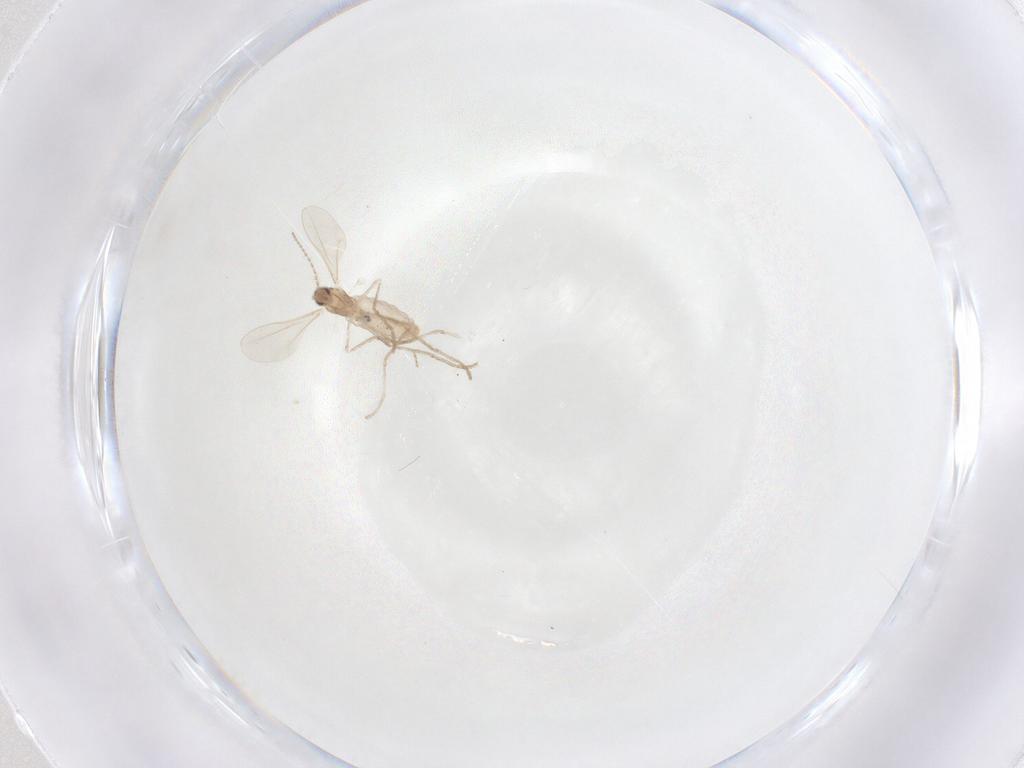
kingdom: Animalia
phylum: Arthropoda
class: Insecta
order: Diptera
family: Cecidomyiidae
